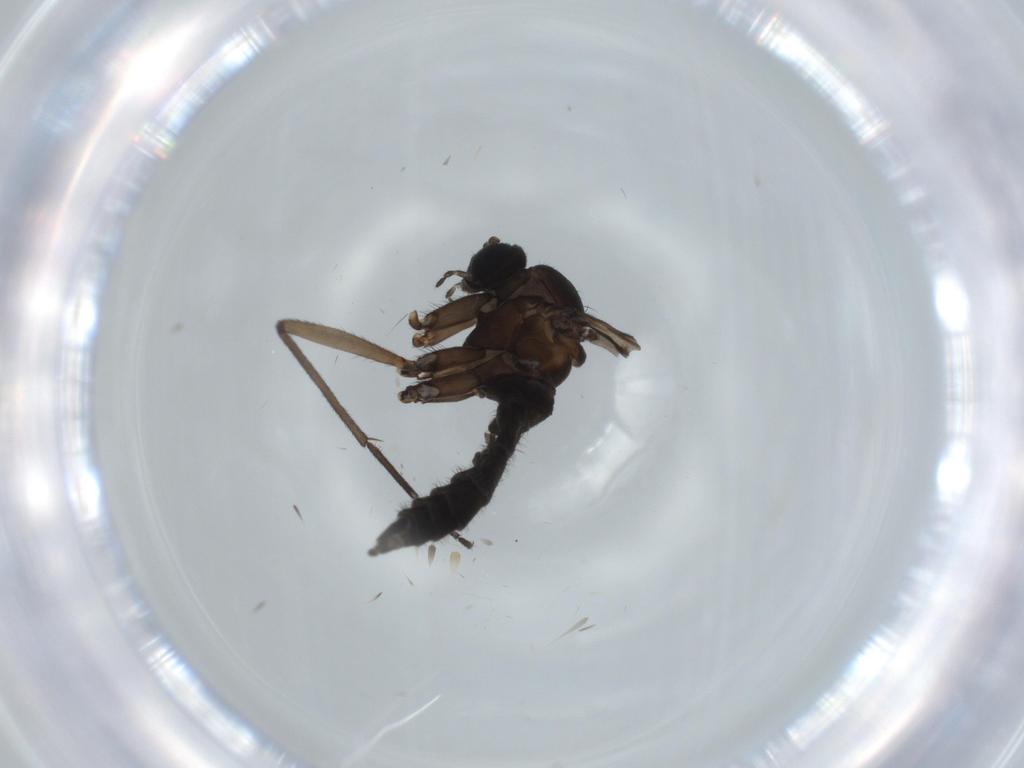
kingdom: Animalia
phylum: Arthropoda
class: Insecta
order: Diptera
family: Sciaridae
